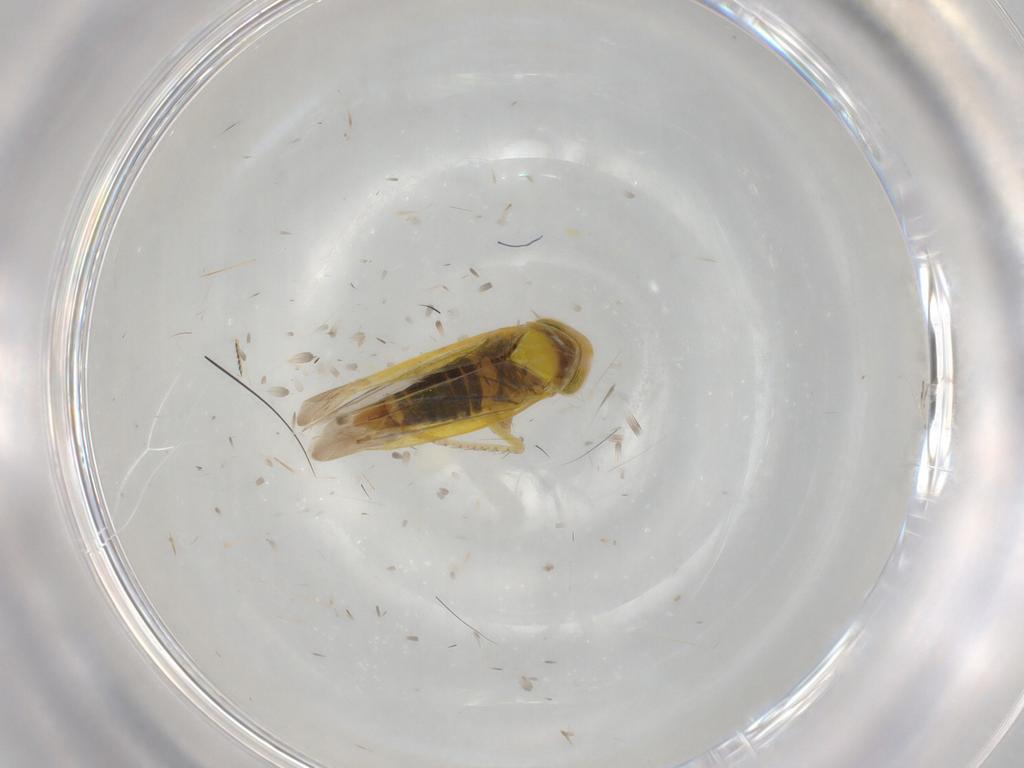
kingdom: Animalia
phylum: Arthropoda
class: Insecta
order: Hemiptera
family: Cicadellidae
